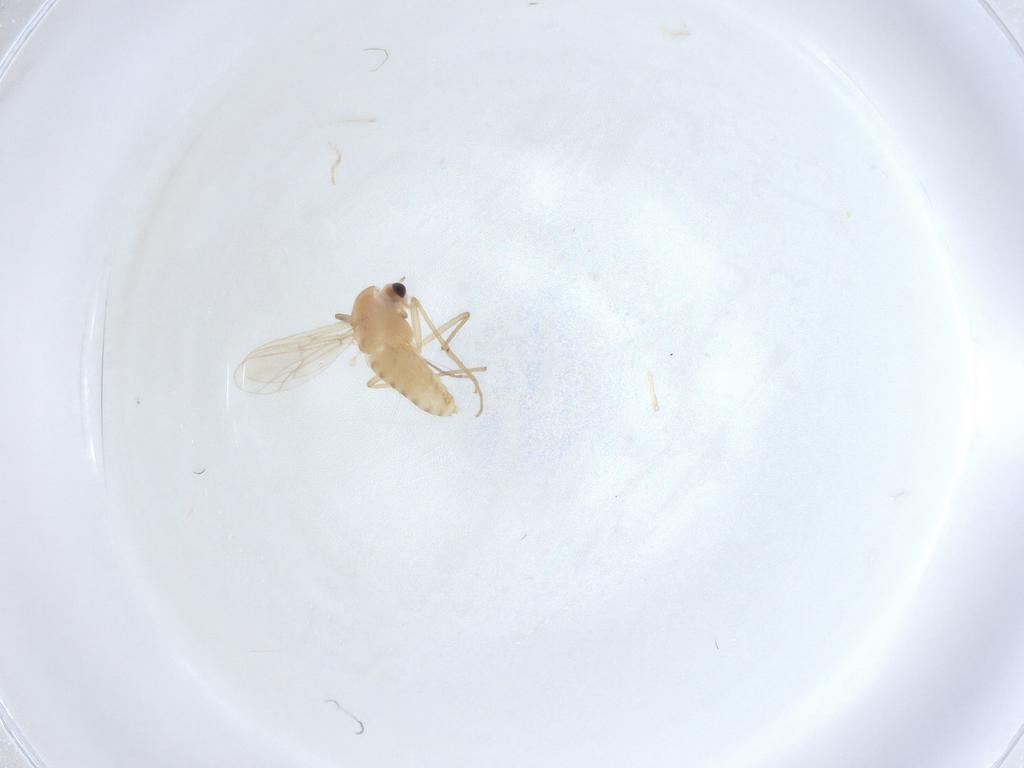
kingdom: Animalia
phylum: Arthropoda
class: Insecta
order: Diptera
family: Chironomidae
